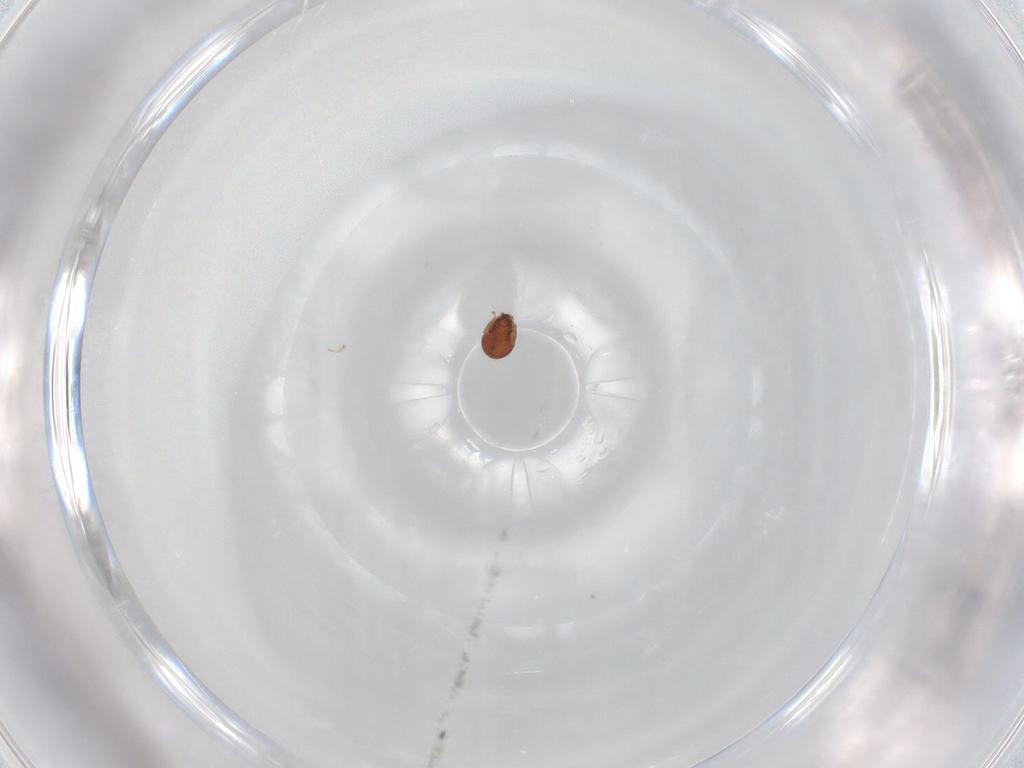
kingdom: Animalia
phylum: Arthropoda
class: Arachnida
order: Sarcoptiformes
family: Tegoribatidae
